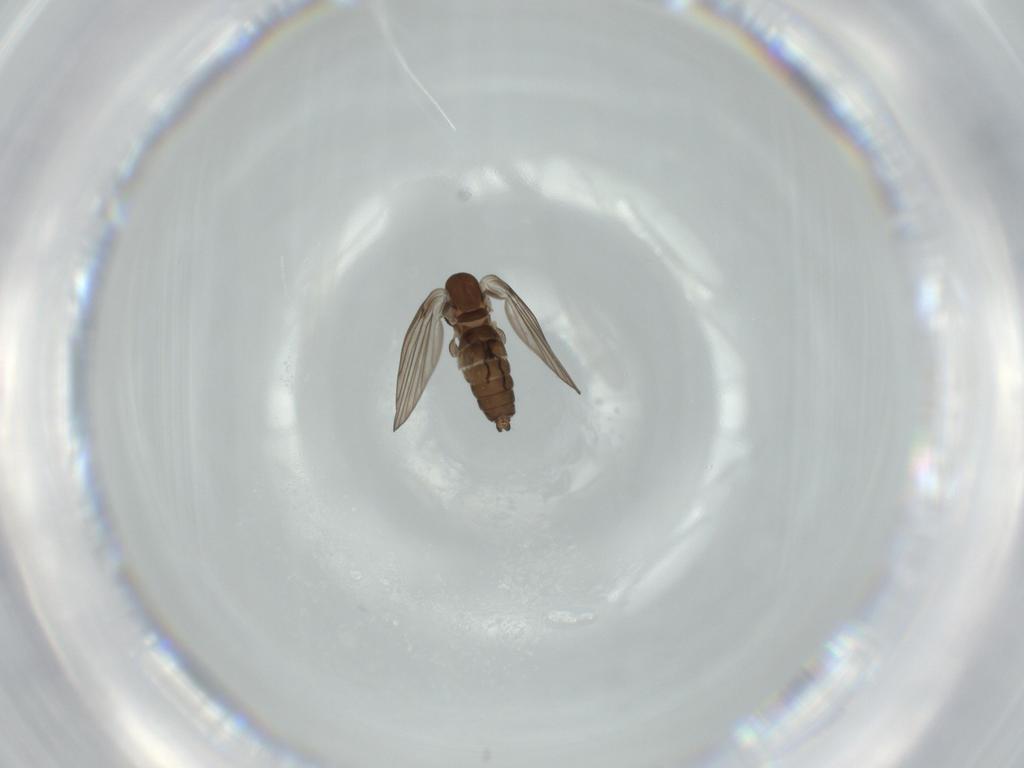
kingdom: Animalia
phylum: Arthropoda
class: Insecta
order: Diptera
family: Psychodidae
